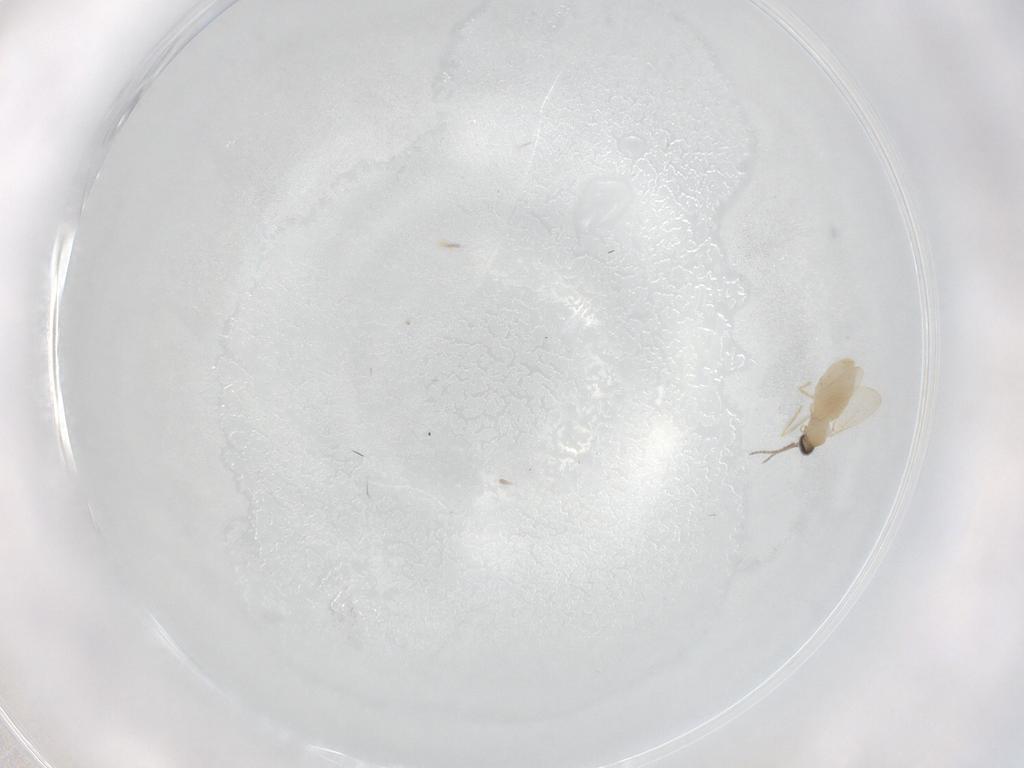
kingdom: Animalia
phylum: Arthropoda
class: Insecta
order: Diptera
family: Cecidomyiidae
